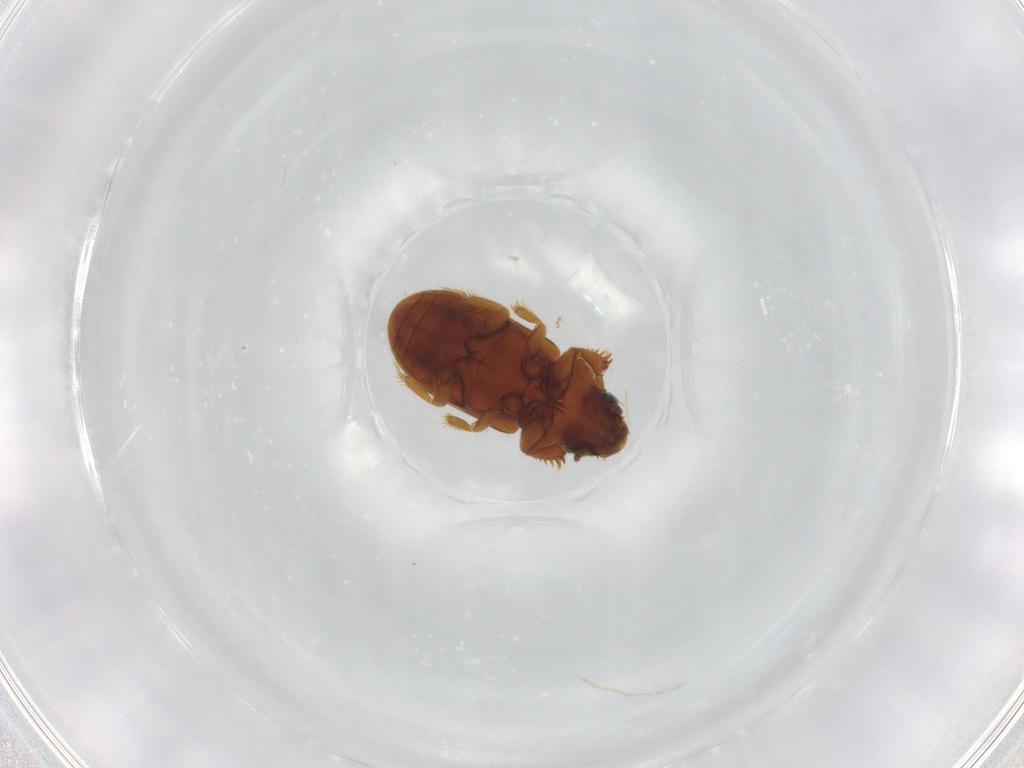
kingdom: Animalia
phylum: Arthropoda
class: Insecta
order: Coleoptera
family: Heteroceridae
